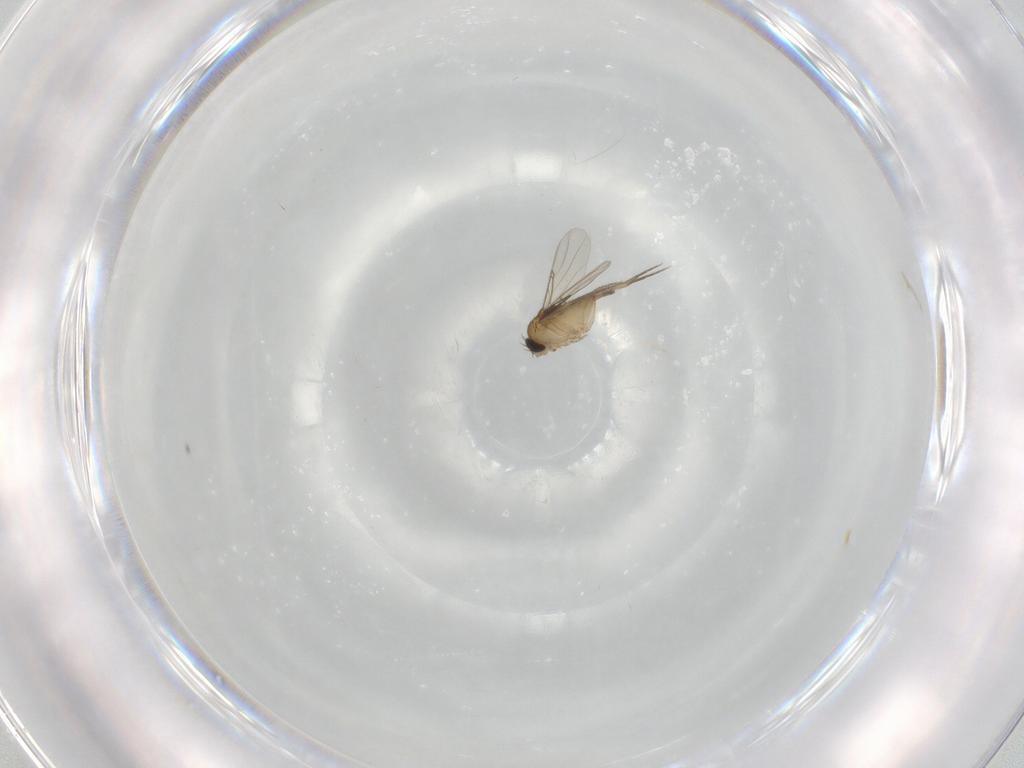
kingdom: Animalia
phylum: Arthropoda
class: Insecta
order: Diptera
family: Phoridae
